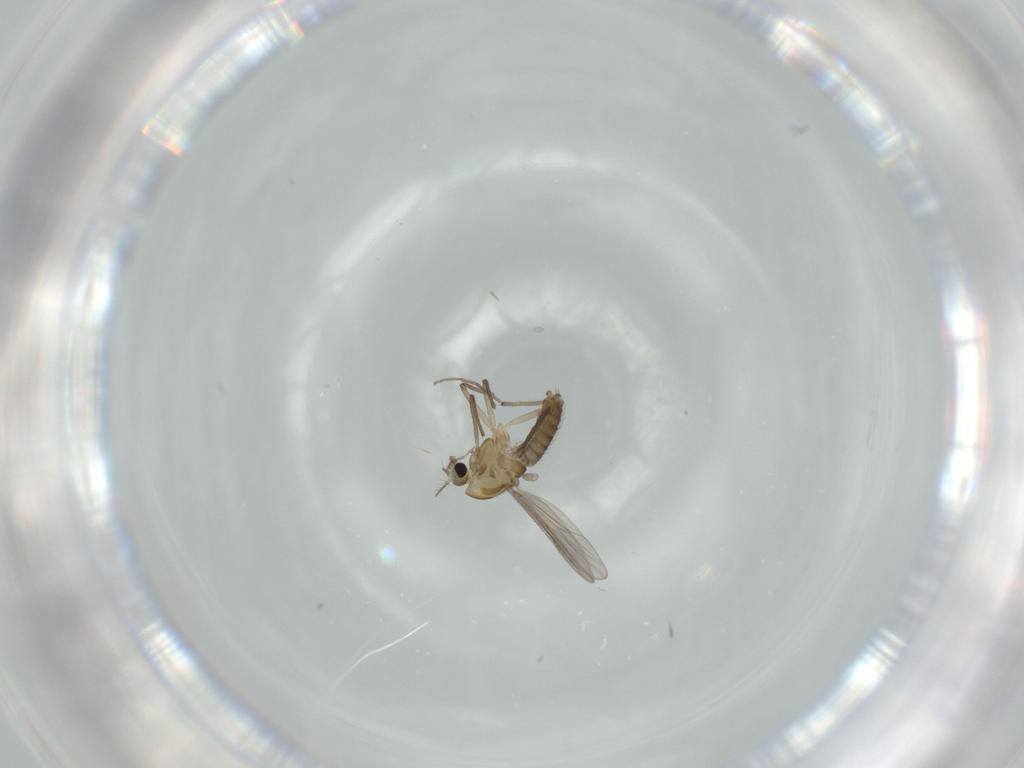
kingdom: Animalia
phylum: Arthropoda
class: Insecta
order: Diptera
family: Chironomidae
